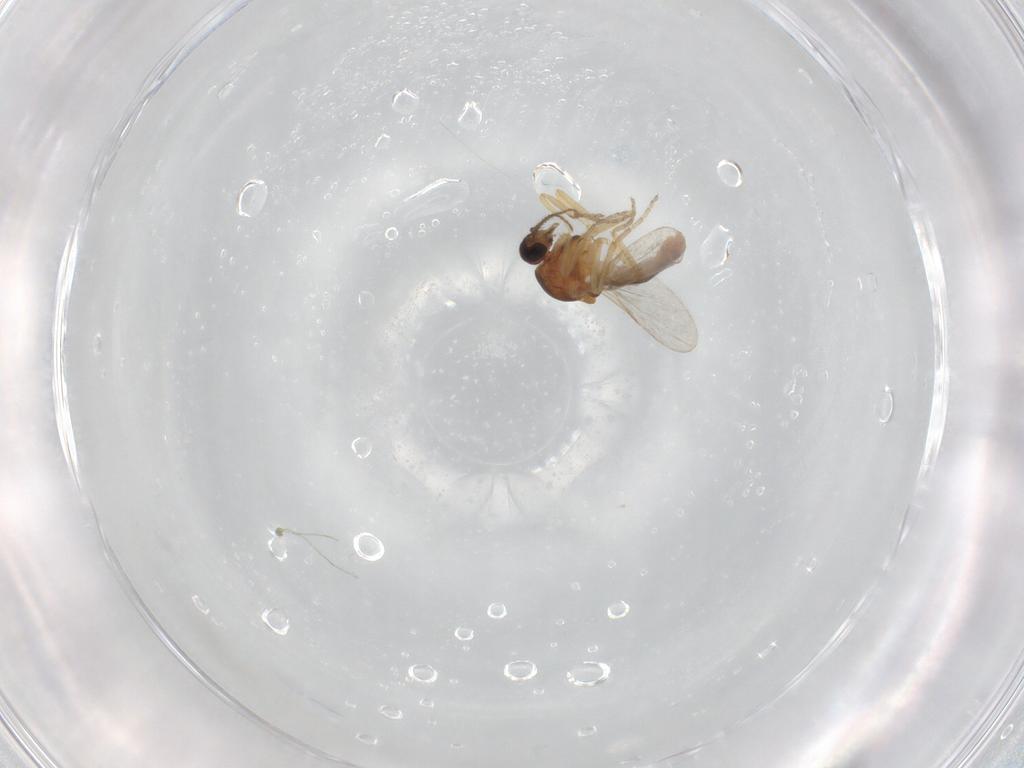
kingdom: Animalia
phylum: Arthropoda
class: Insecta
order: Diptera
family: Ceratopogonidae
